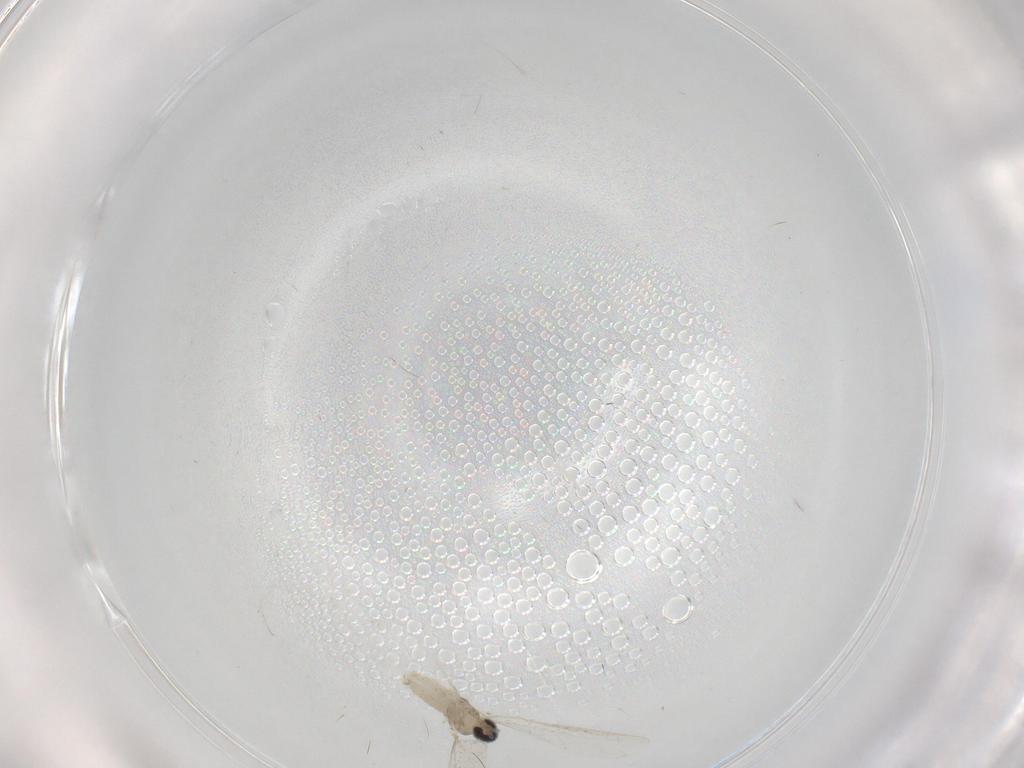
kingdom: Animalia
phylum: Arthropoda
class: Insecta
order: Diptera
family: Cecidomyiidae
